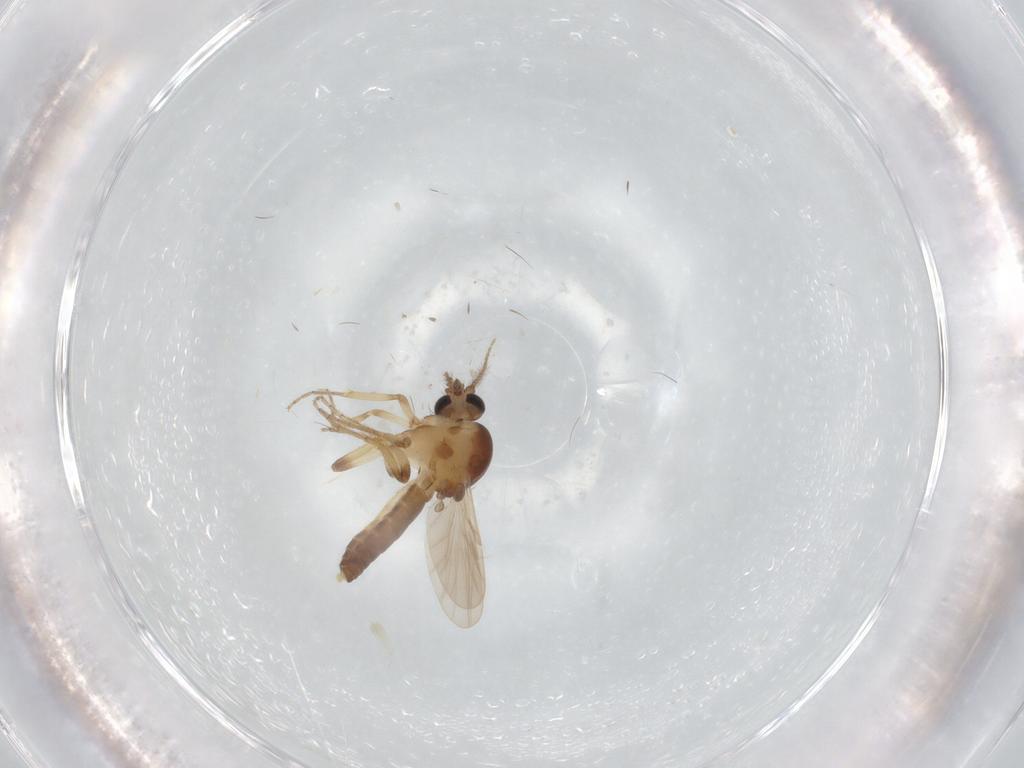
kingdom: Animalia
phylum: Arthropoda
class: Insecta
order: Diptera
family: Ceratopogonidae
